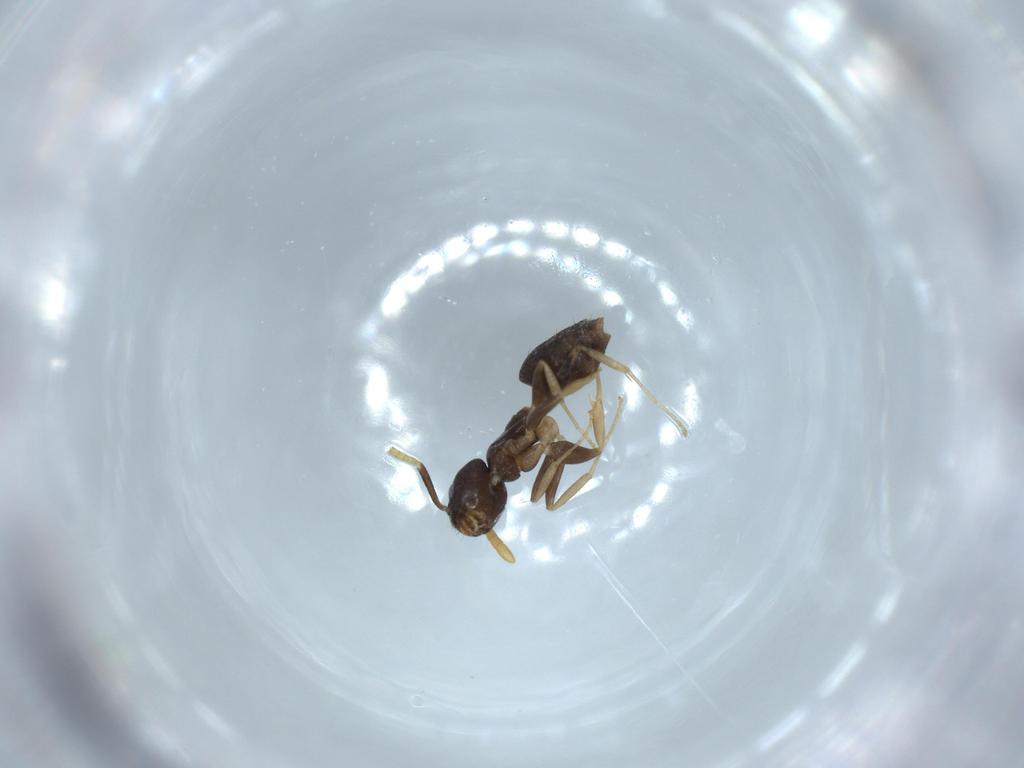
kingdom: Animalia
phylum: Arthropoda
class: Insecta
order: Hymenoptera
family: Formicidae
